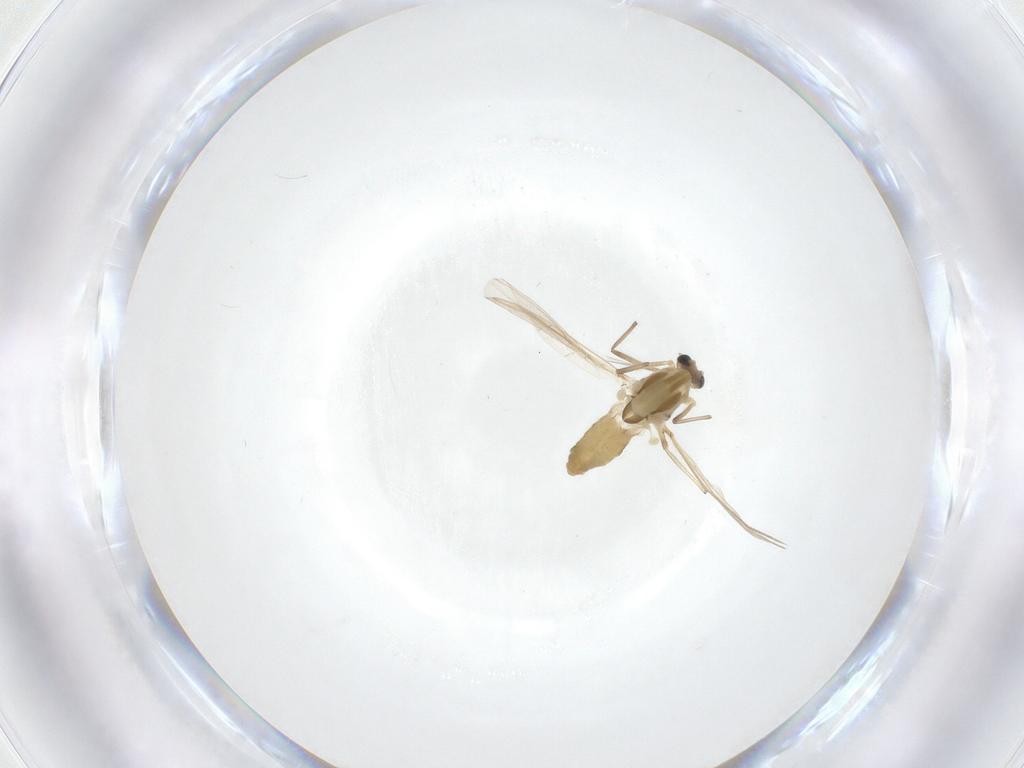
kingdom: Animalia
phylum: Arthropoda
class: Insecta
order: Diptera
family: Chironomidae
